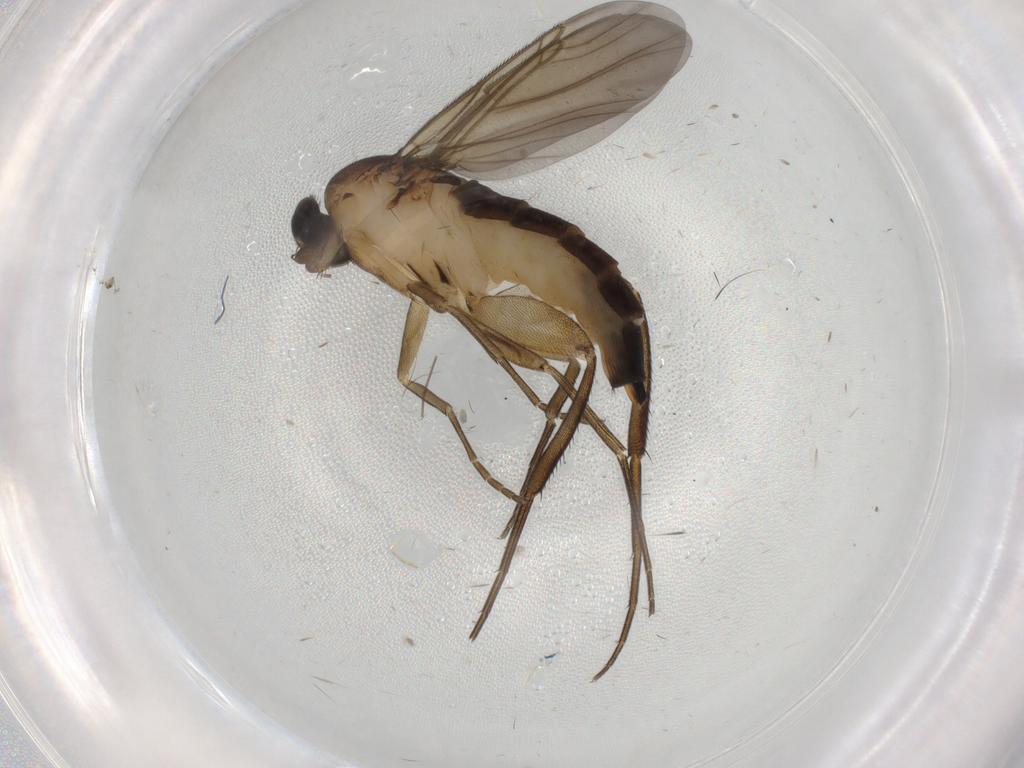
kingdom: Animalia
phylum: Arthropoda
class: Insecta
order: Diptera
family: Phoridae
